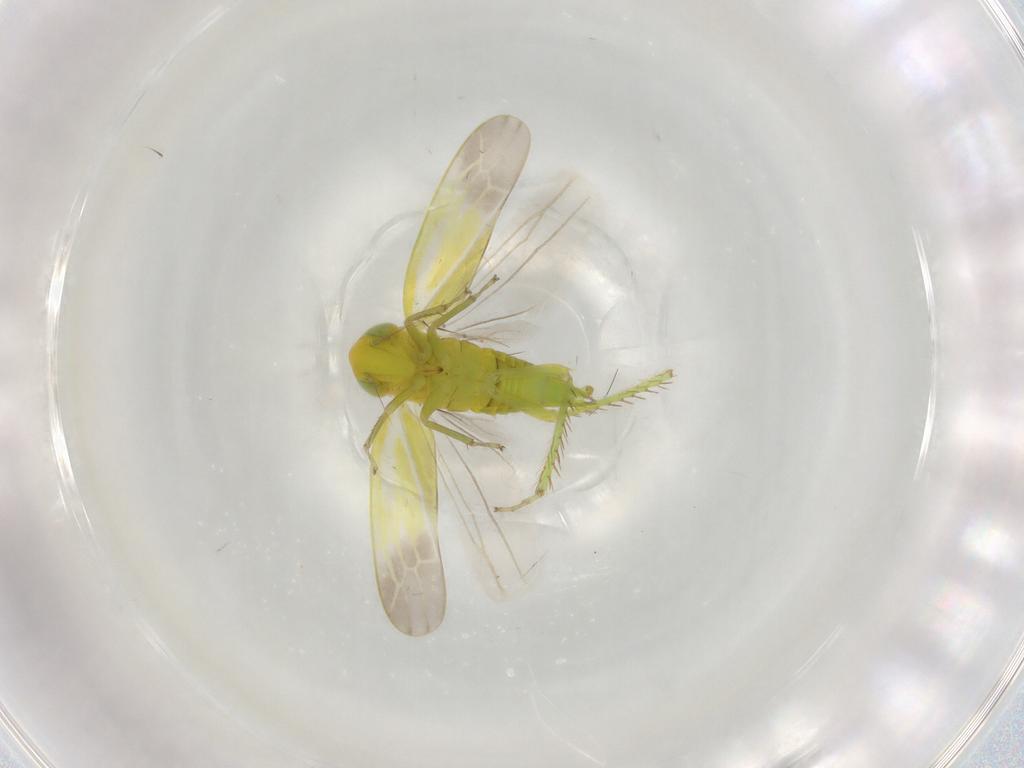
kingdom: Animalia
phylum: Arthropoda
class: Insecta
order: Hemiptera
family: Cicadellidae
